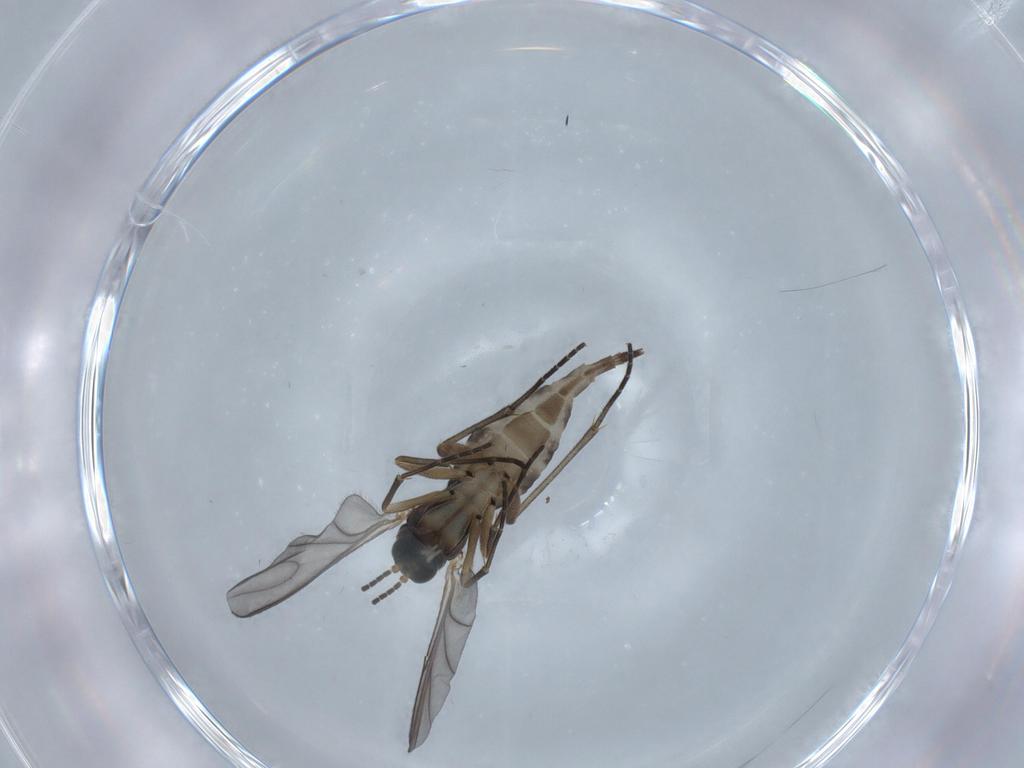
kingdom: Animalia
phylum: Arthropoda
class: Insecta
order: Diptera
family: Sciaridae
